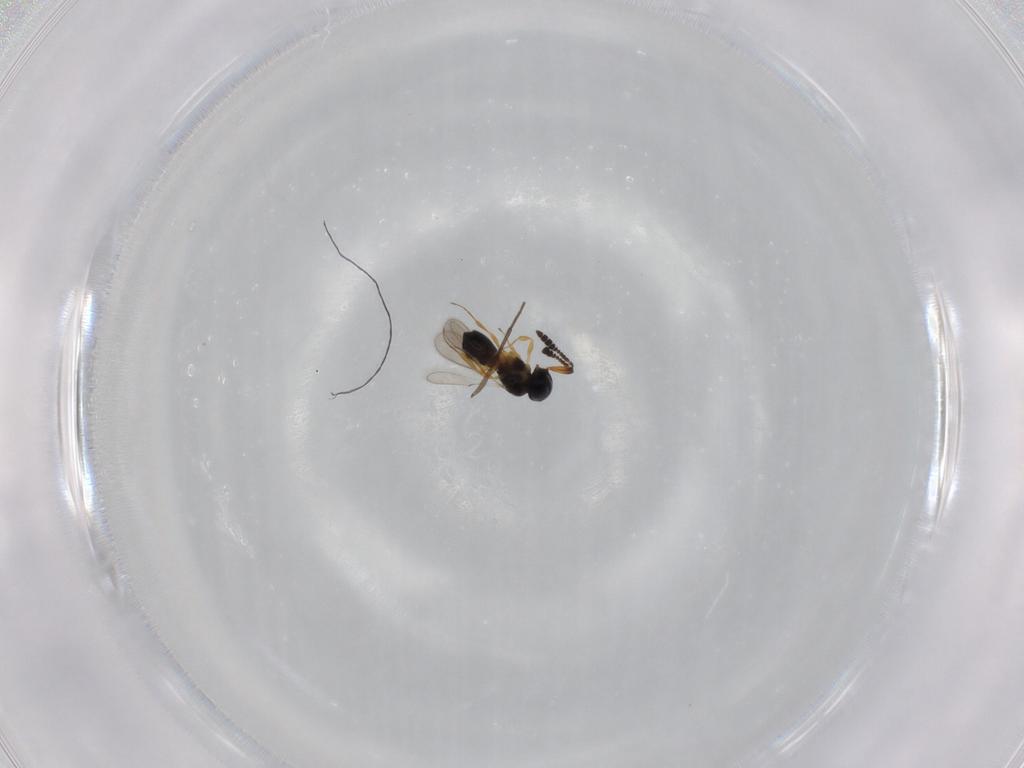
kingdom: Animalia
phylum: Arthropoda
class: Insecta
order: Hymenoptera
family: Scelionidae
